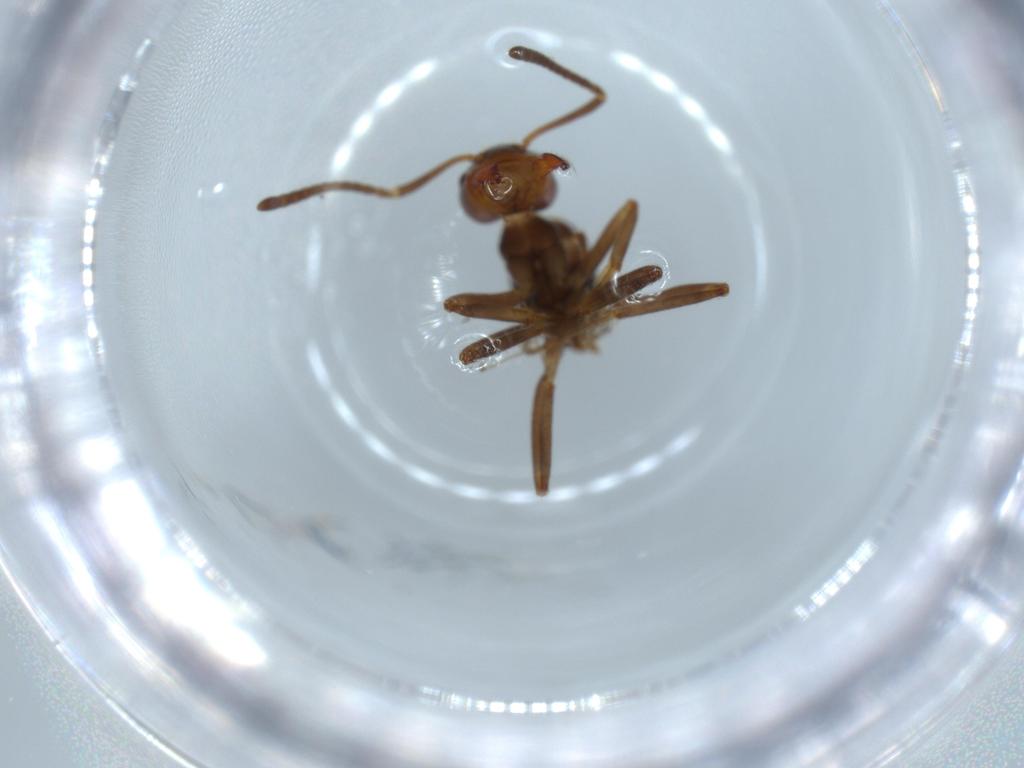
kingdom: Animalia
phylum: Arthropoda
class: Insecta
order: Hymenoptera
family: Formicidae
